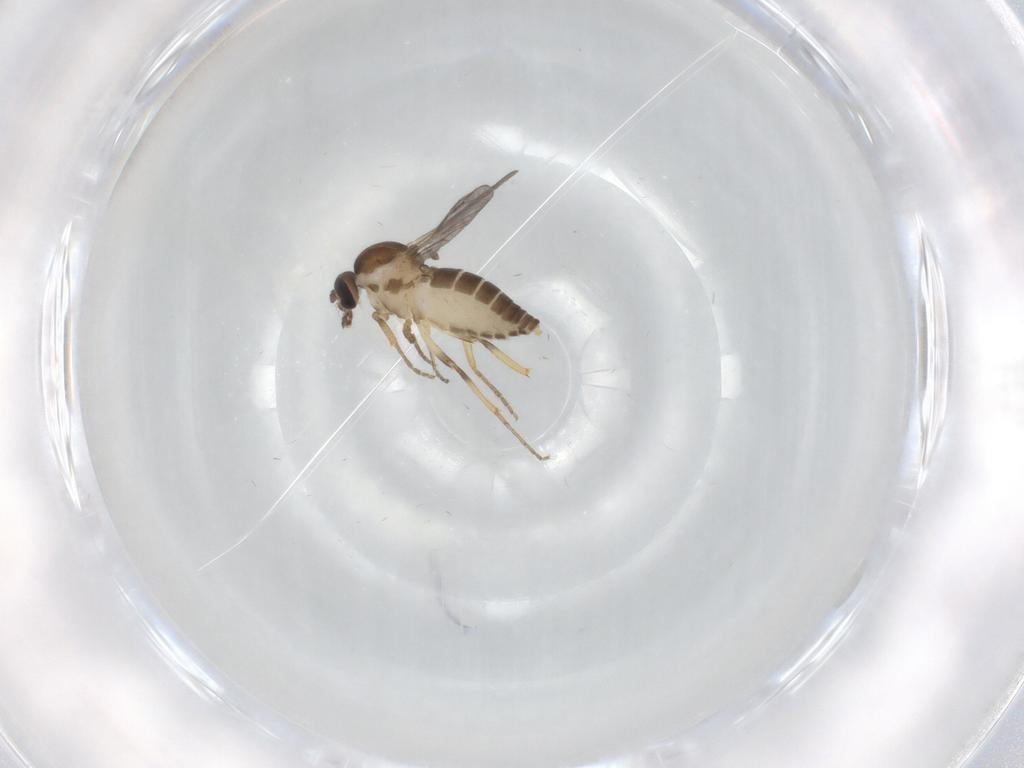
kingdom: Animalia
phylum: Arthropoda
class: Insecta
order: Diptera
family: Ceratopogonidae
